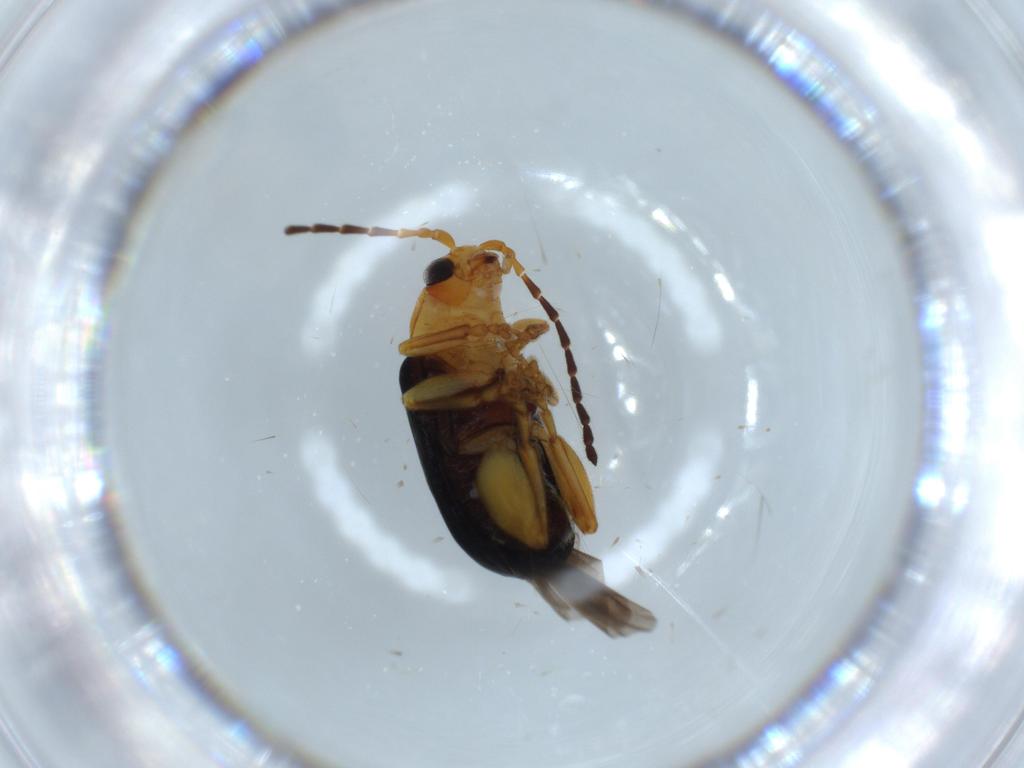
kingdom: Animalia
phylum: Arthropoda
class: Insecta
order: Coleoptera
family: Chrysomelidae
